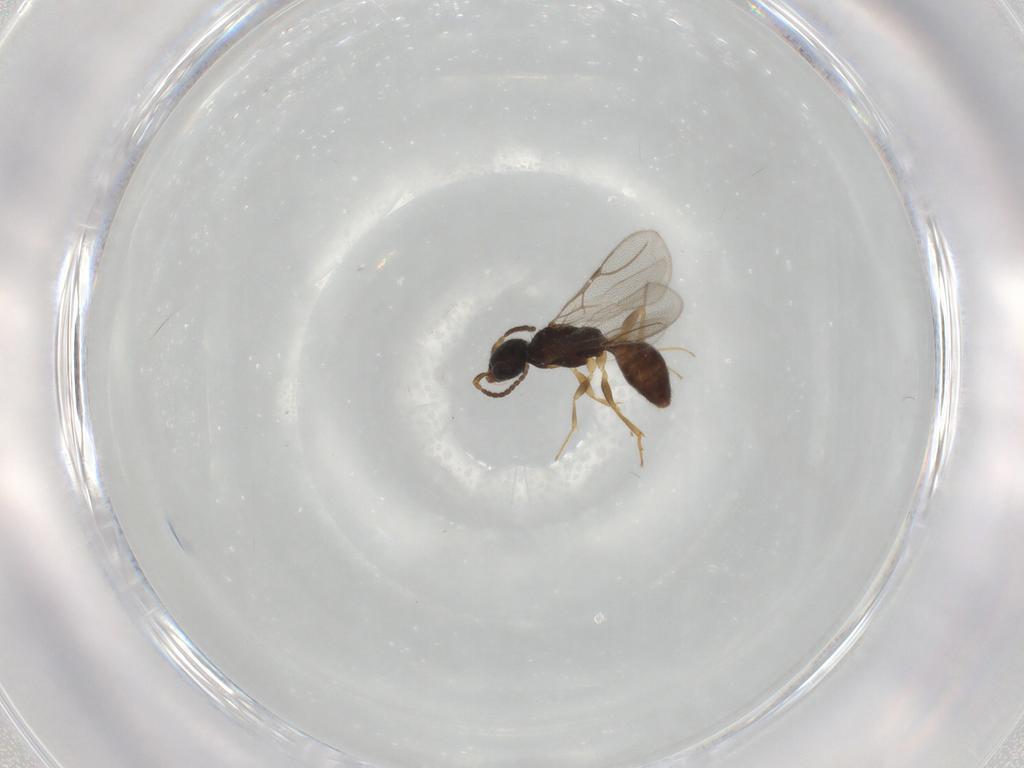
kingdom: Animalia
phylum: Arthropoda
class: Insecta
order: Hymenoptera
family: Bethylidae
